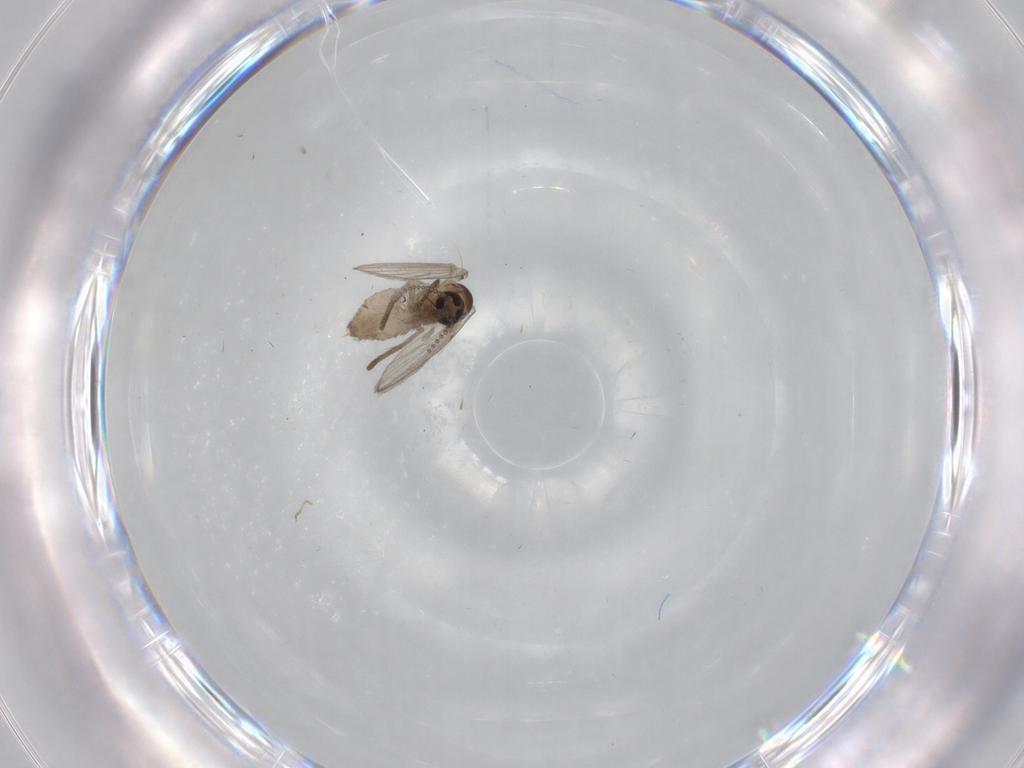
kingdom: Animalia
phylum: Arthropoda
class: Insecta
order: Diptera
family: Psychodidae
